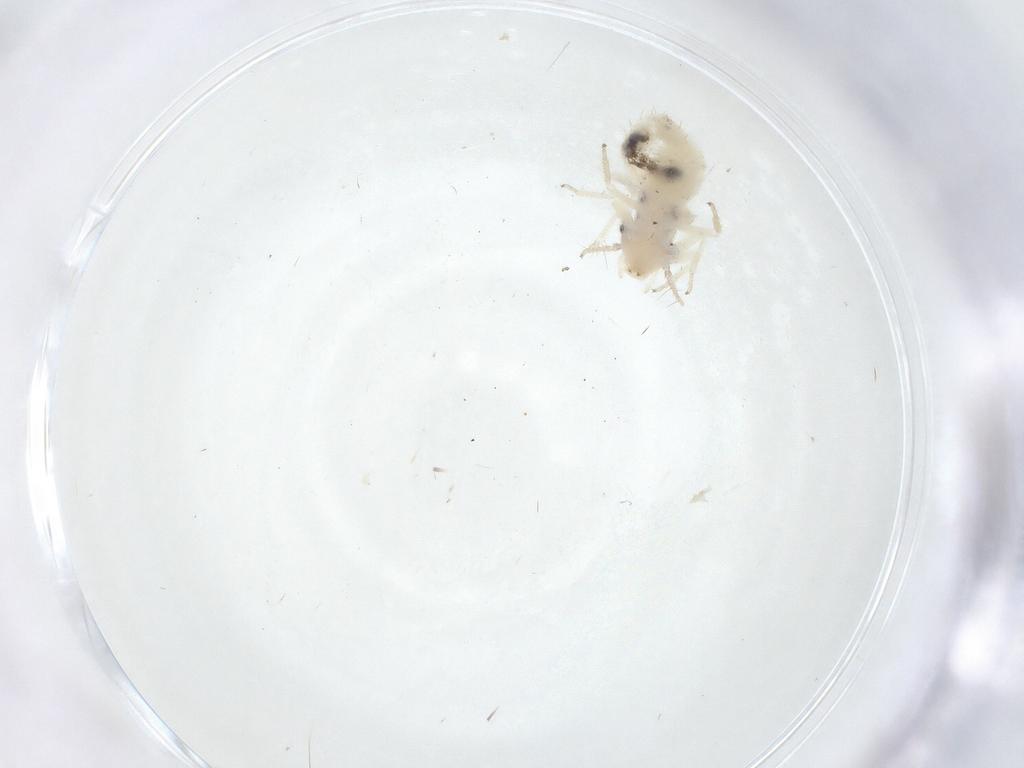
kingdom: Animalia
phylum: Arthropoda
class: Insecta
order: Psocodea
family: Pseudocaeciliidae
